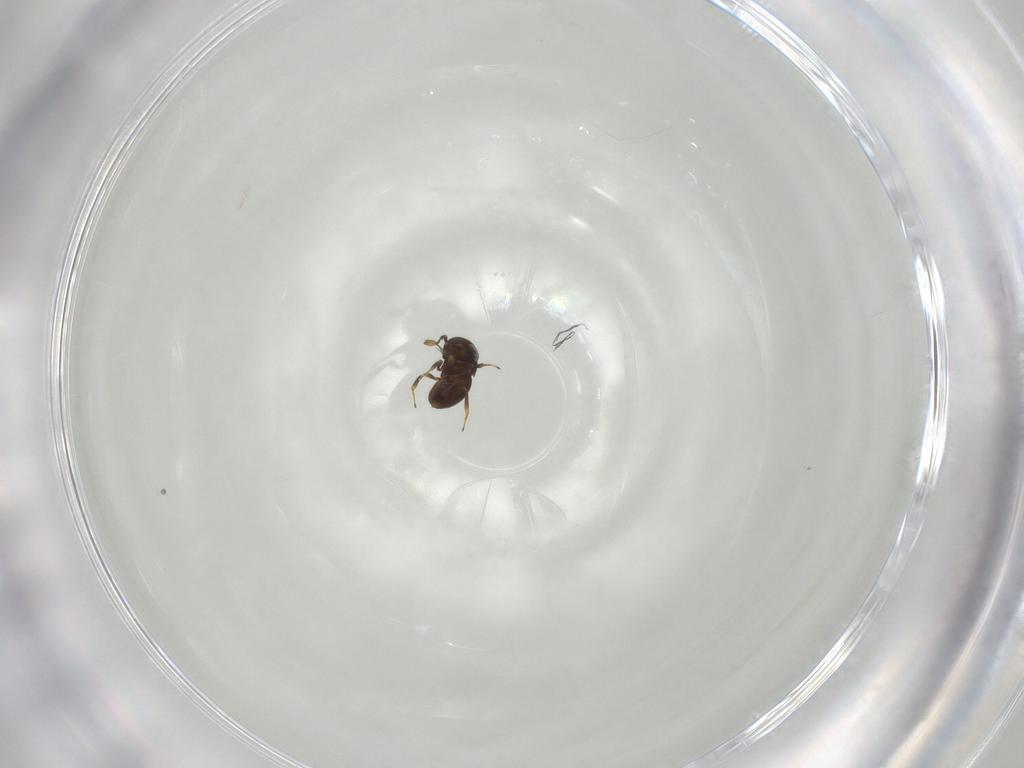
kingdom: Animalia
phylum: Arthropoda
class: Insecta
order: Hymenoptera
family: Scelionidae
